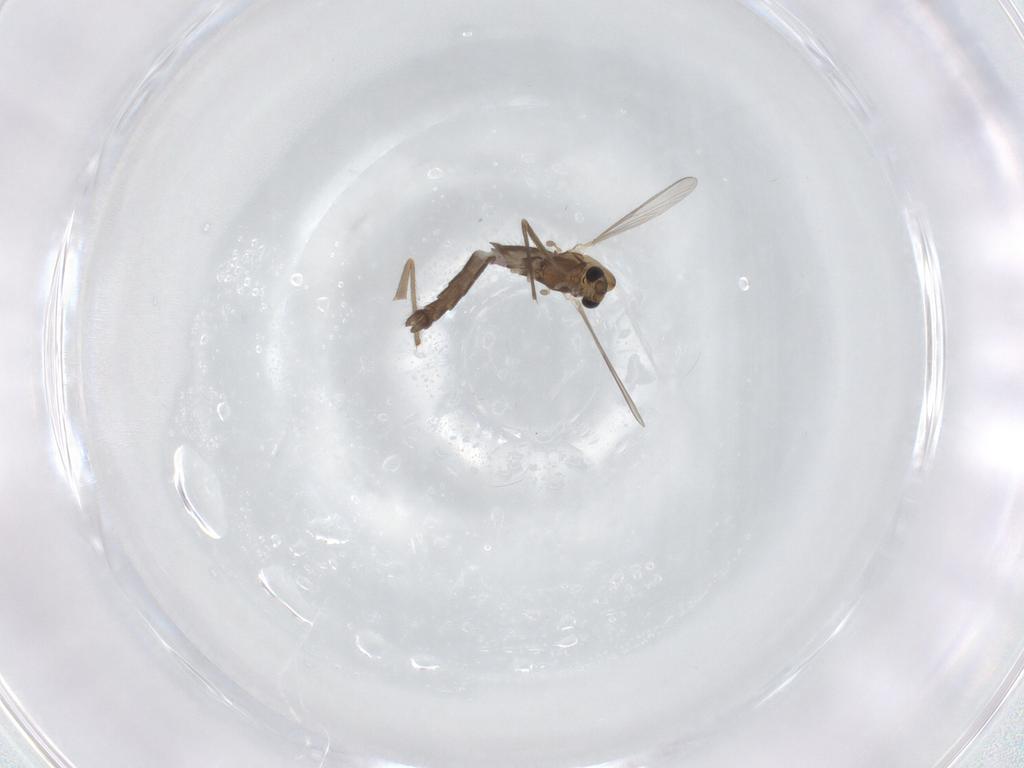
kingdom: Animalia
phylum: Arthropoda
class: Insecta
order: Diptera
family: Chironomidae
